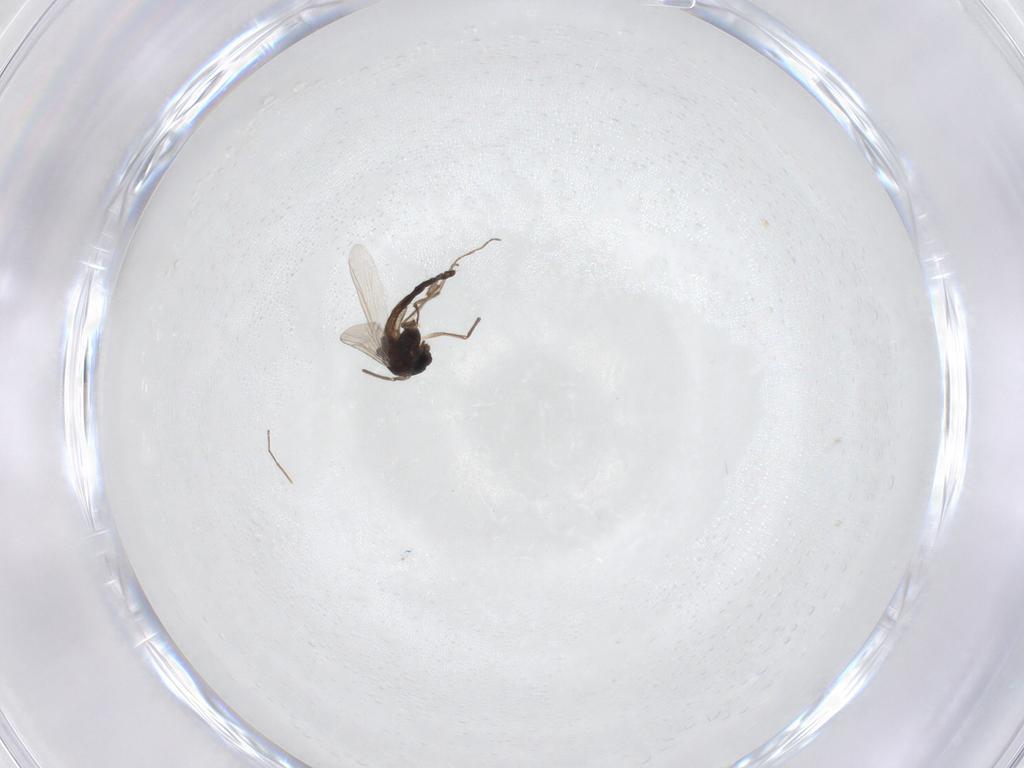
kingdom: Animalia
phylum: Arthropoda
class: Insecta
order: Diptera
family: Chironomidae
